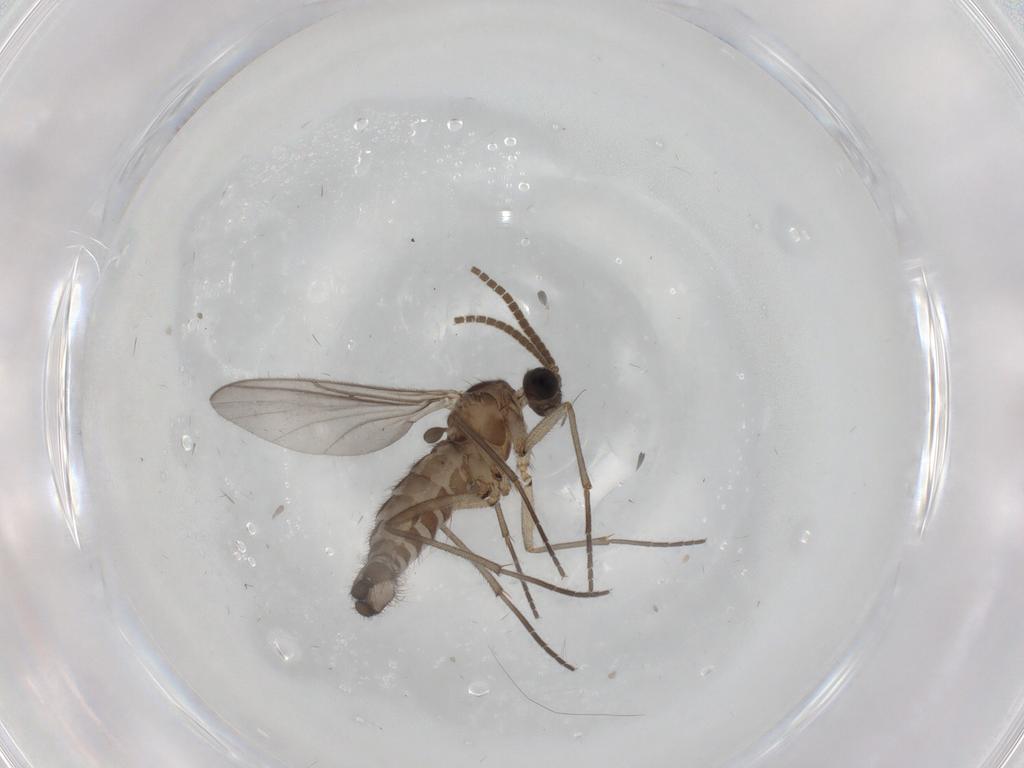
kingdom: Animalia
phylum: Arthropoda
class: Insecta
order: Diptera
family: Sciaridae
